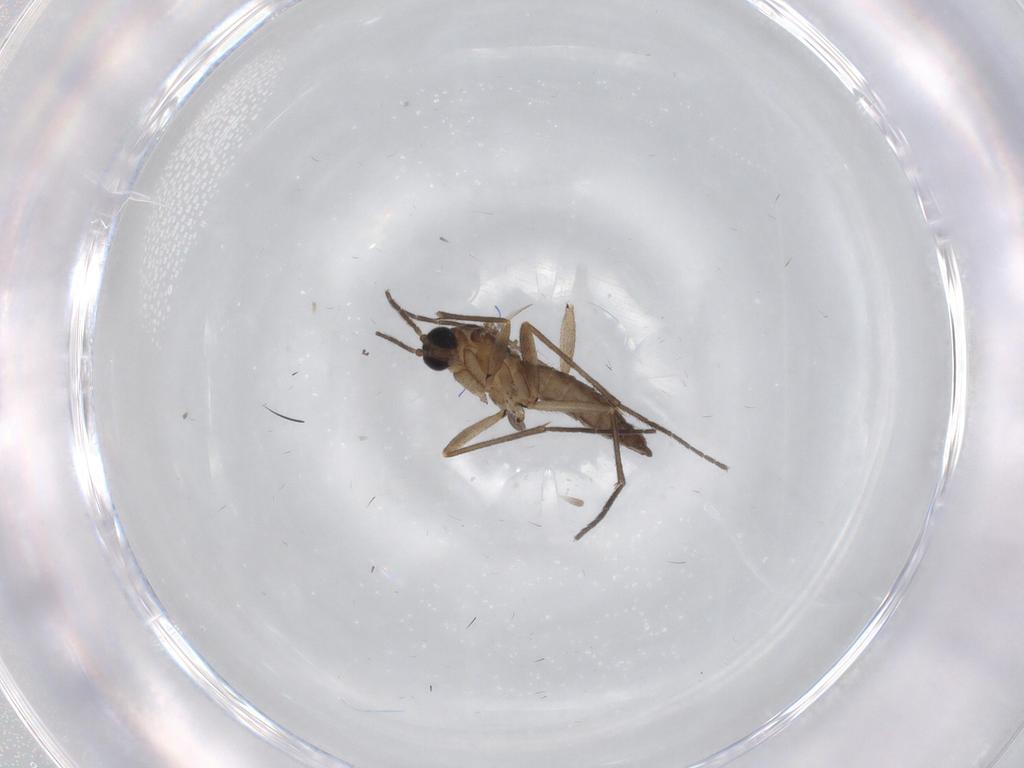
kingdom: Animalia
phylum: Arthropoda
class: Insecta
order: Diptera
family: Sciaridae
